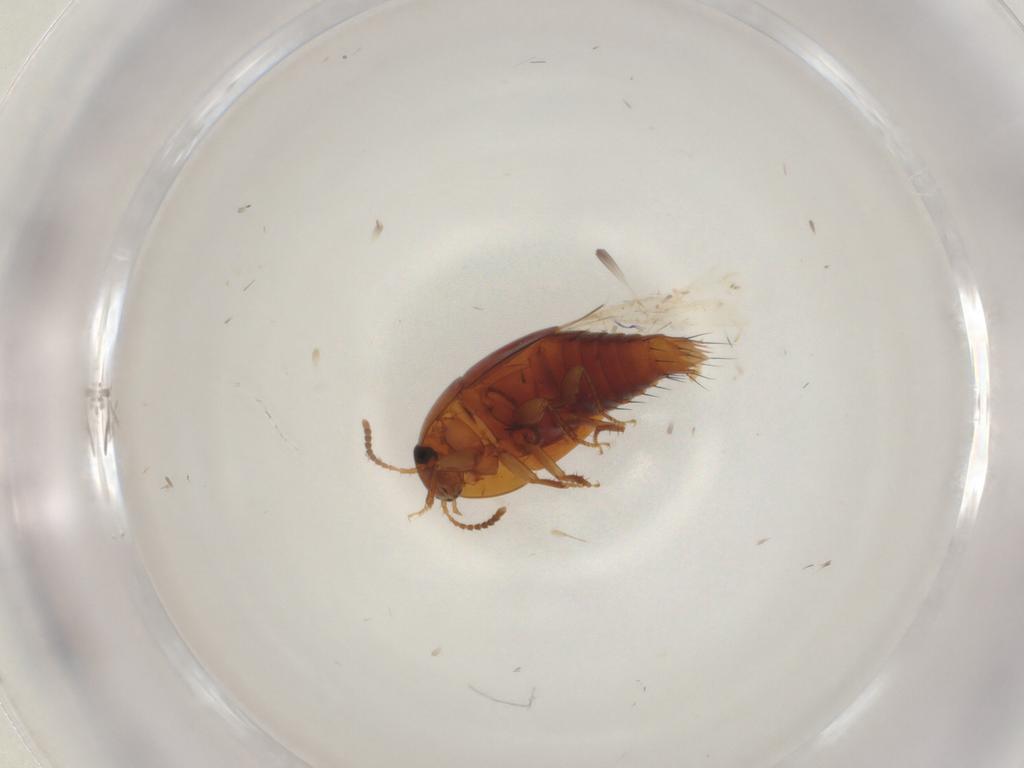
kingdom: Animalia
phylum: Arthropoda
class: Insecta
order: Coleoptera
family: Staphylinidae
